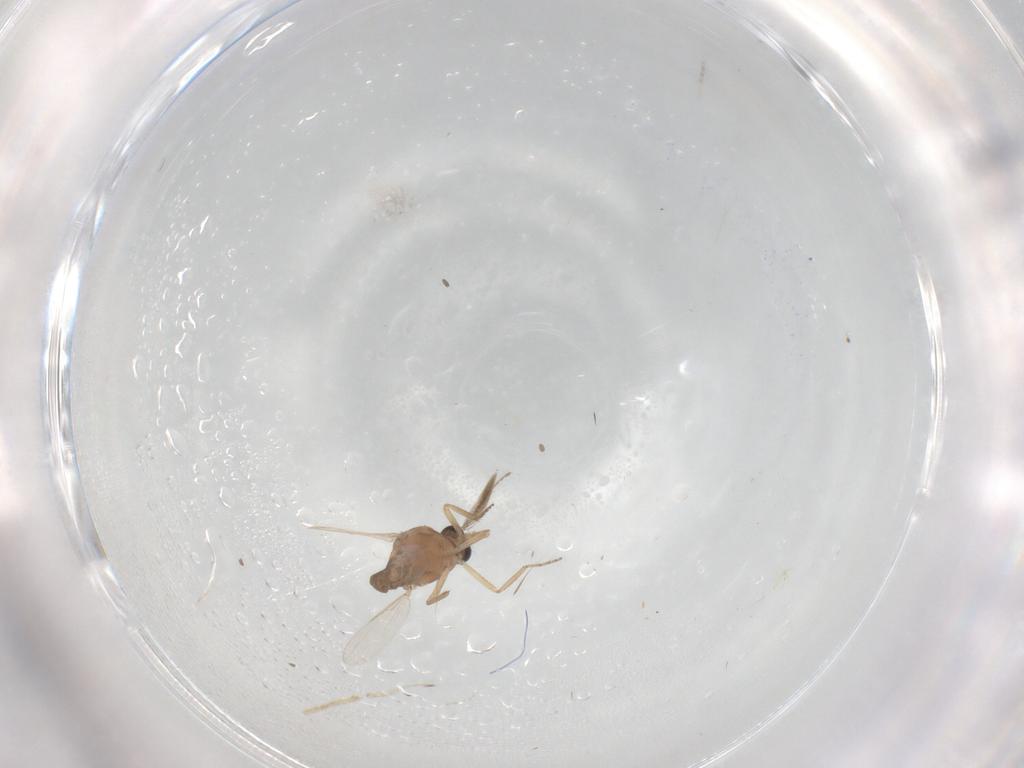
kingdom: Animalia
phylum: Arthropoda
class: Insecta
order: Diptera
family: Ceratopogonidae
